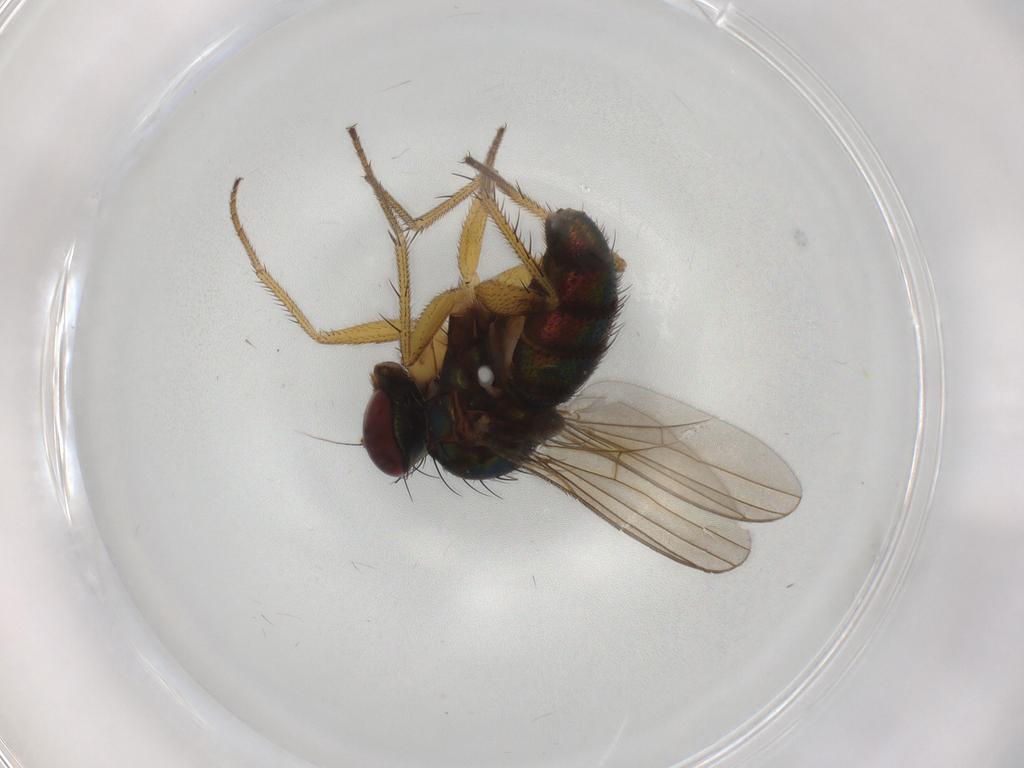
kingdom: Animalia
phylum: Arthropoda
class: Insecta
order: Diptera
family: Dolichopodidae
